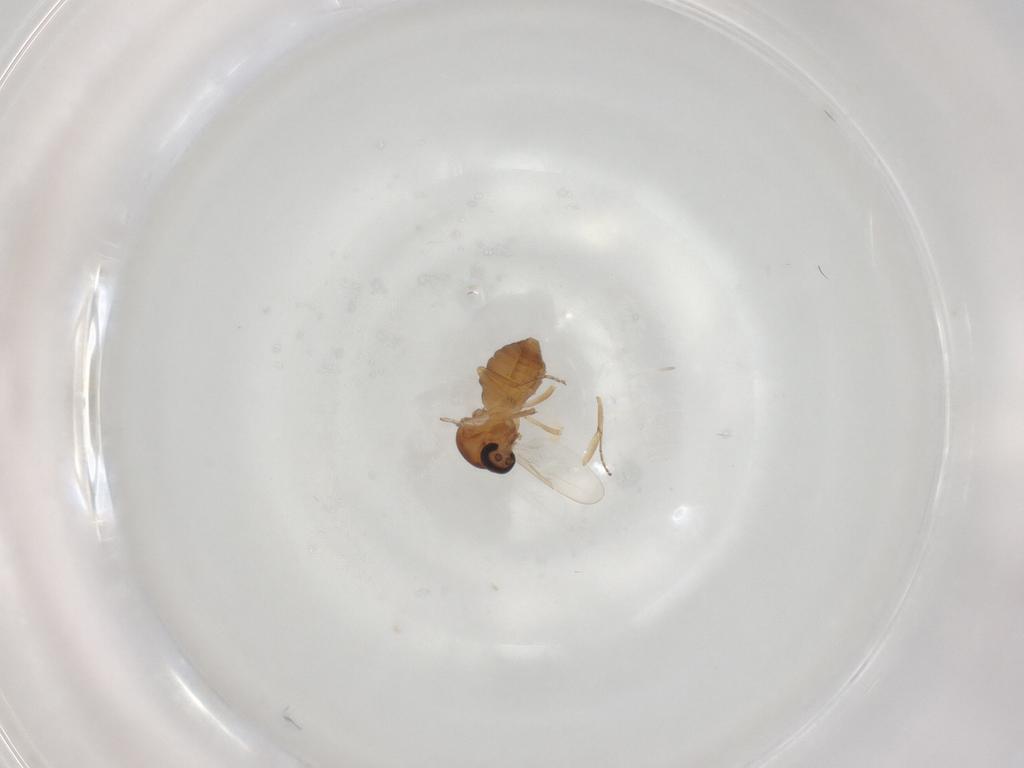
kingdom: Animalia
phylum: Arthropoda
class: Insecta
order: Diptera
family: Ceratopogonidae
